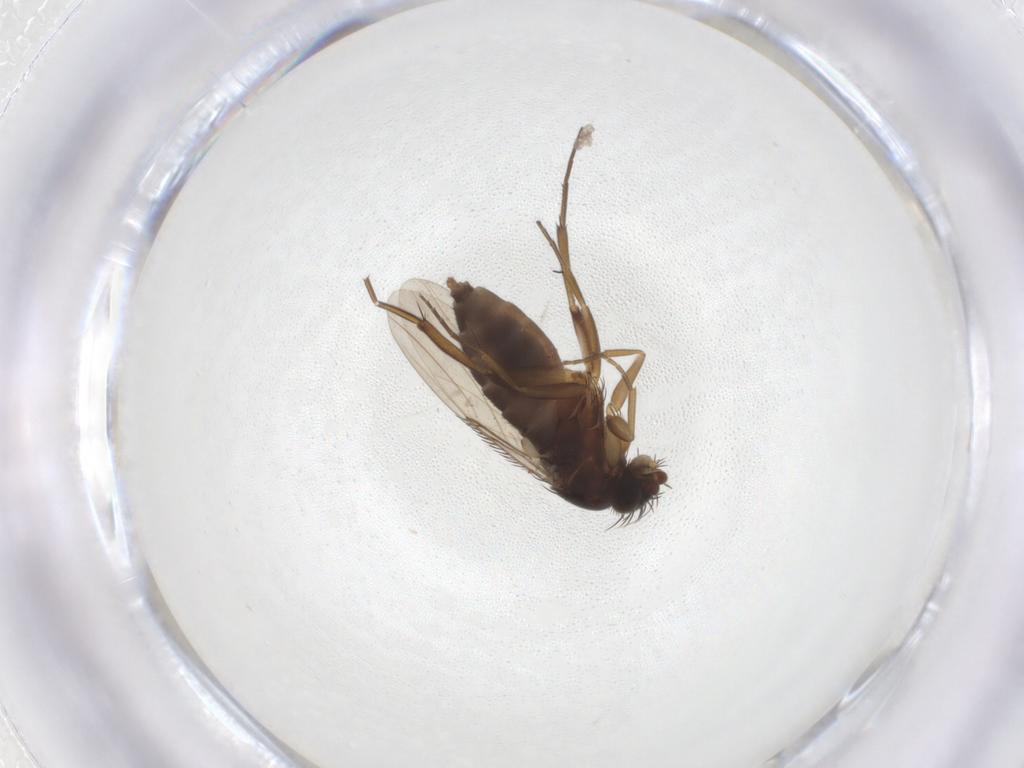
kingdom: Animalia
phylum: Arthropoda
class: Insecta
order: Diptera
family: Phoridae
